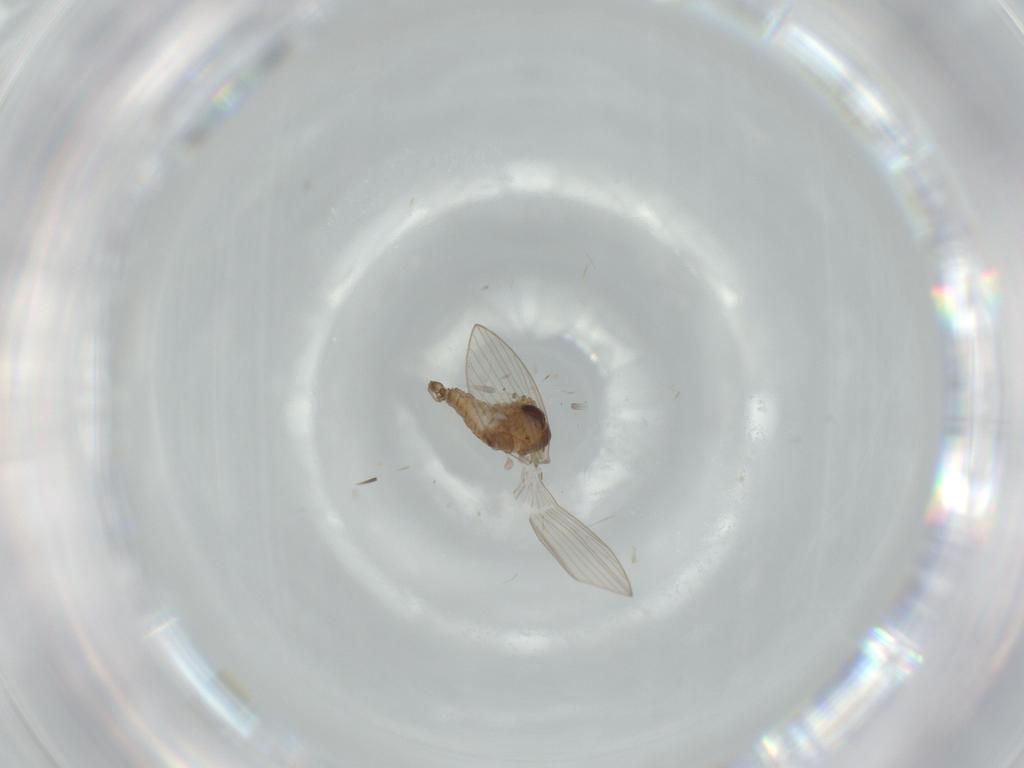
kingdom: Animalia
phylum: Arthropoda
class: Insecta
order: Diptera
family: Psychodidae
